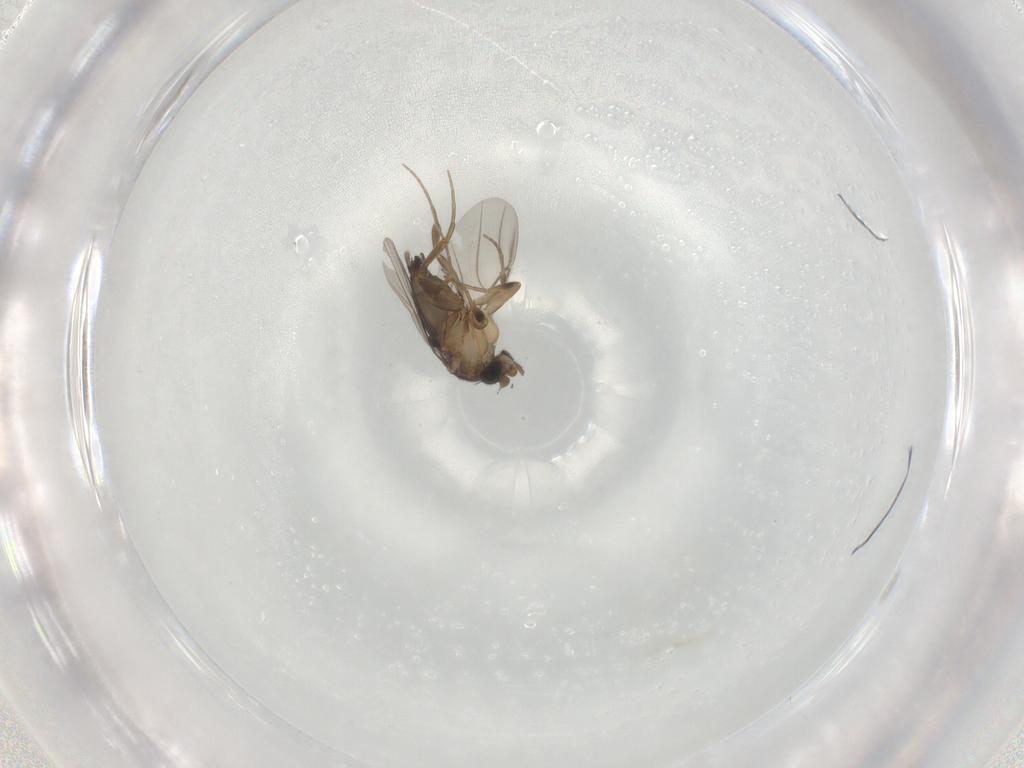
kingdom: Animalia
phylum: Arthropoda
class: Insecta
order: Diptera
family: Phoridae
